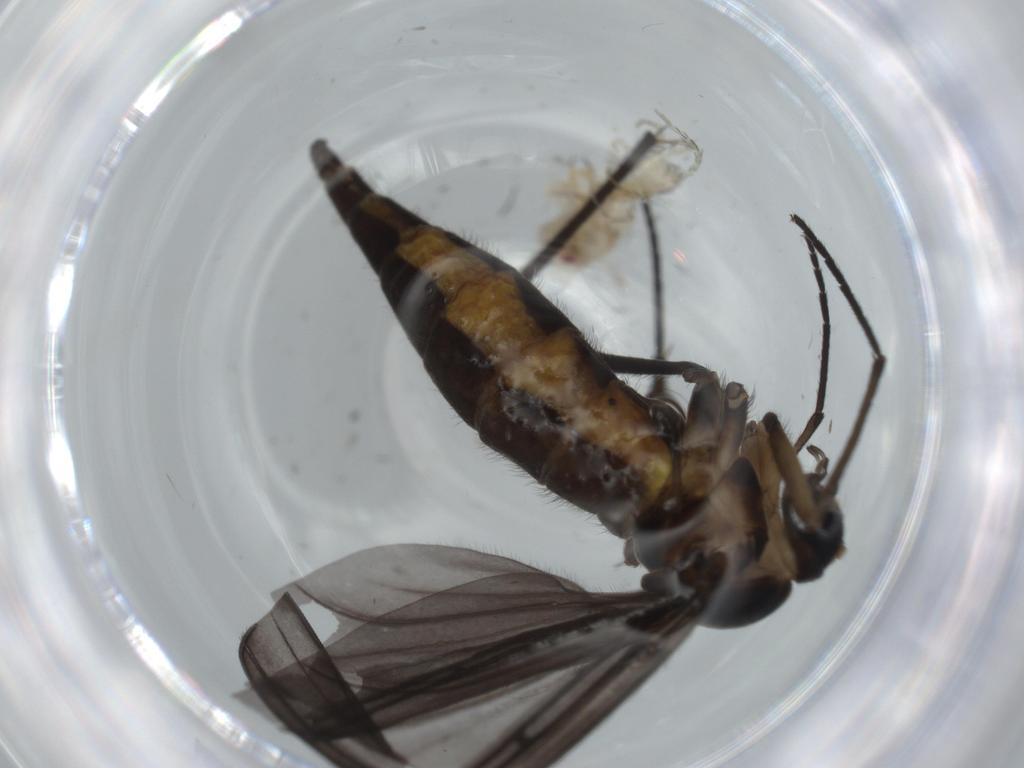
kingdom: Animalia
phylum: Arthropoda
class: Insecta
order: Diptera
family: Sciaridae
